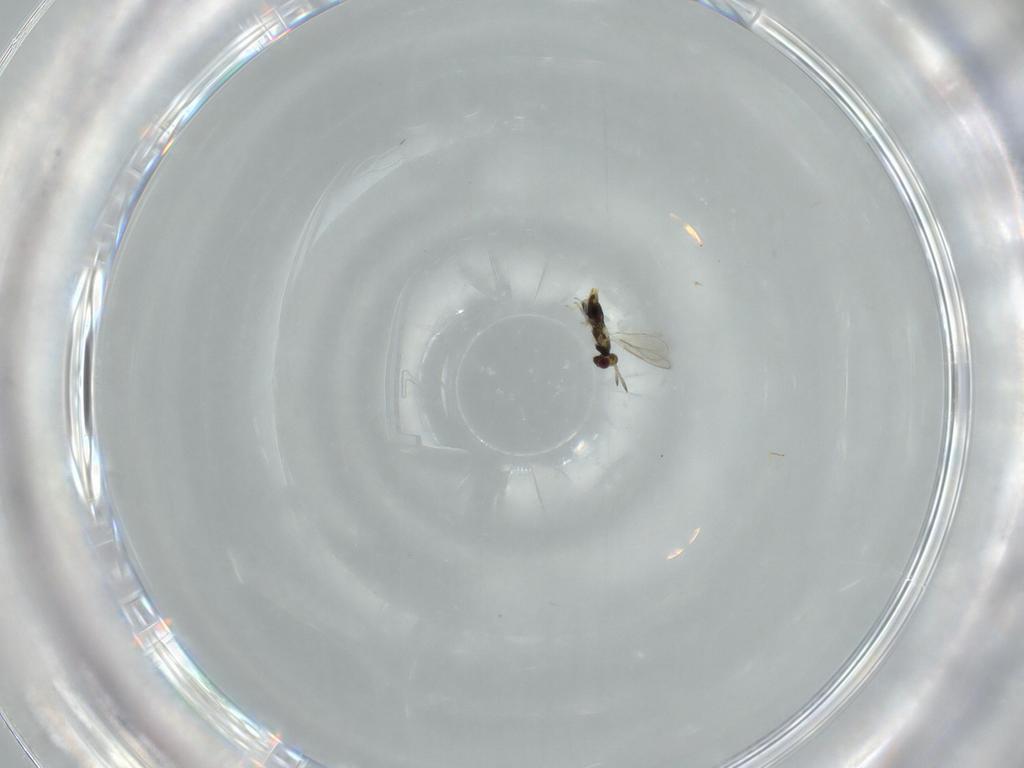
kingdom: Animalia
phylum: Arthropoda
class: Insecta
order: Hymenoptera
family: Aphelinidae
